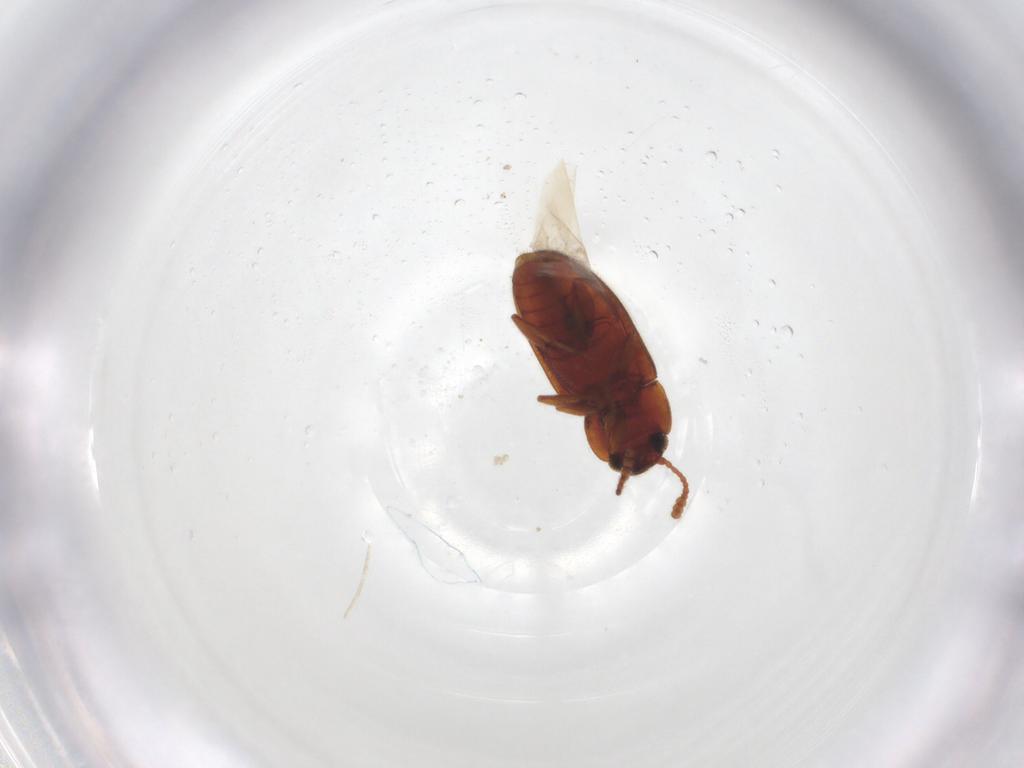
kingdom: Animalia
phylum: Arthropoda
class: Insecta
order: Coleoptera
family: Erotylidae
